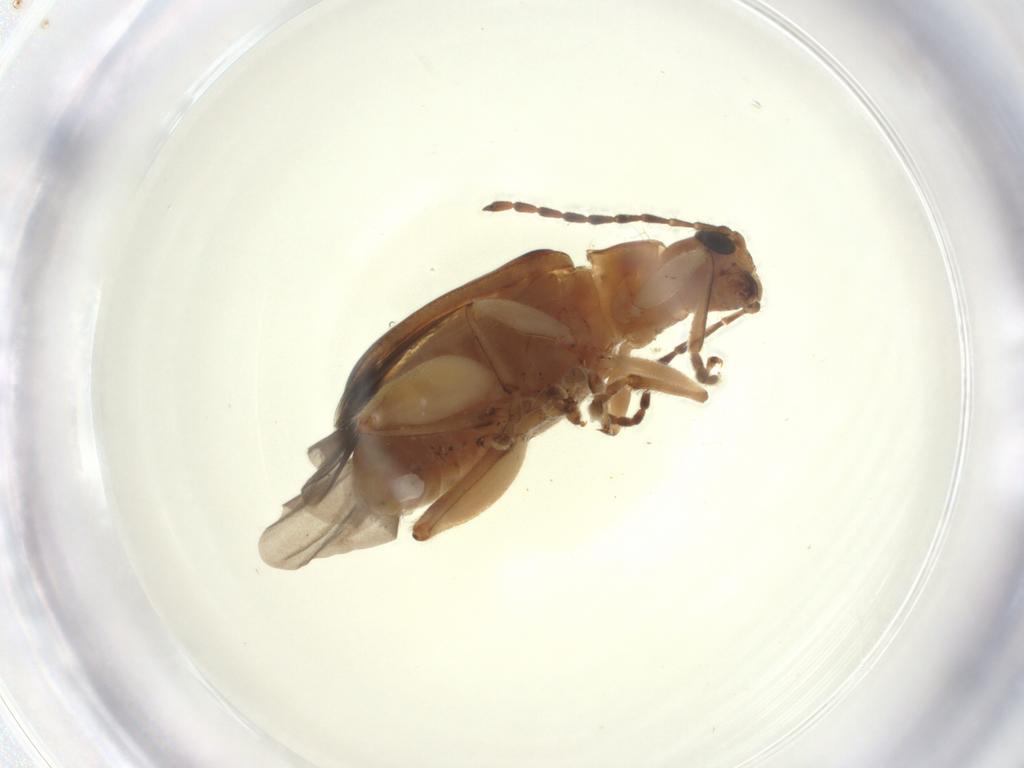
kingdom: Animalia
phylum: Arthropoda
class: Insecta
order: Coleoptera
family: Chrysomelidae
